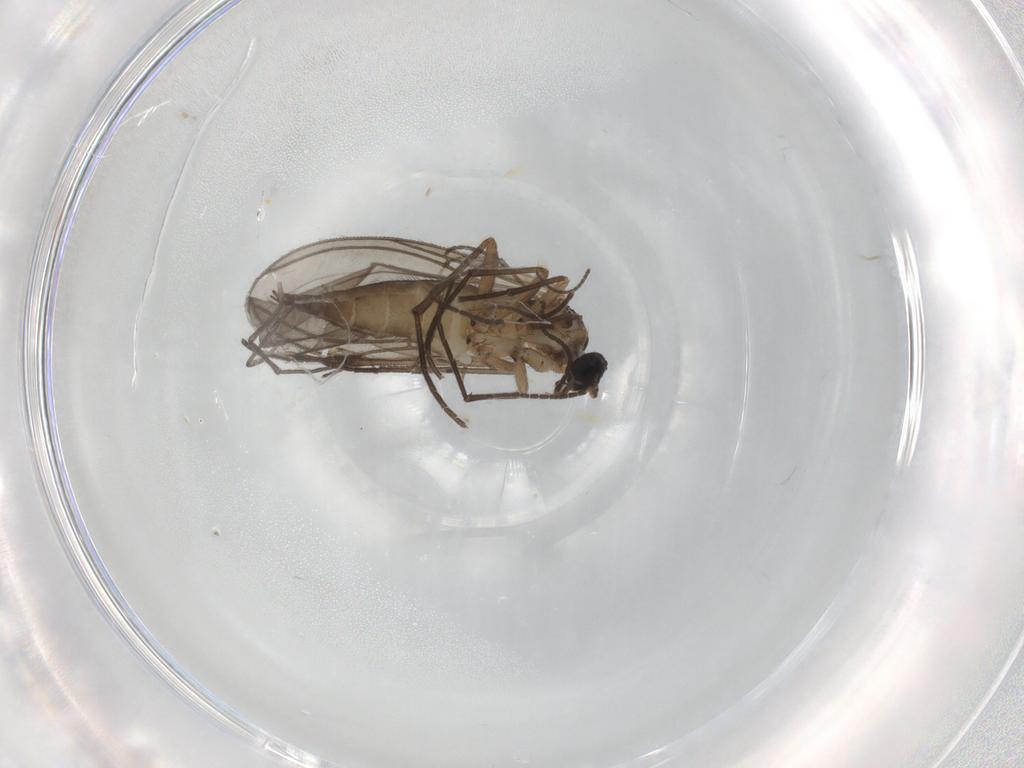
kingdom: Animalia
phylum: Arthropoda
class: Insecta
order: Diptera
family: Sciaridae
